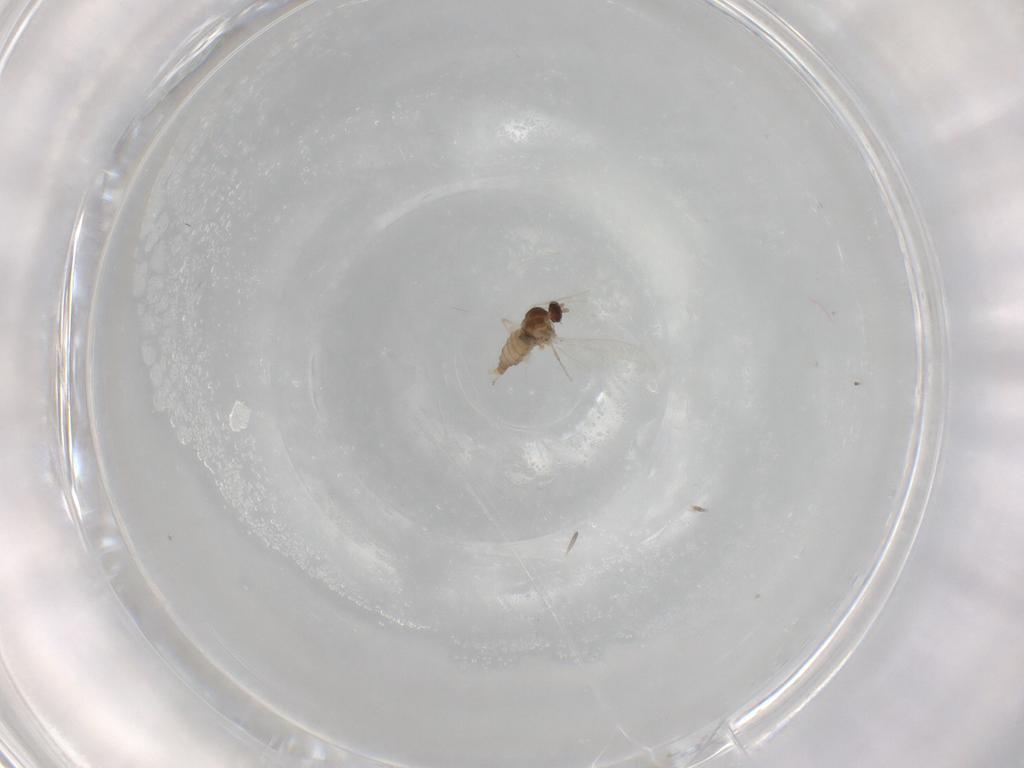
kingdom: Animalia
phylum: Arthropoda
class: Insecta
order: Diptera
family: Cecidomyiidae
